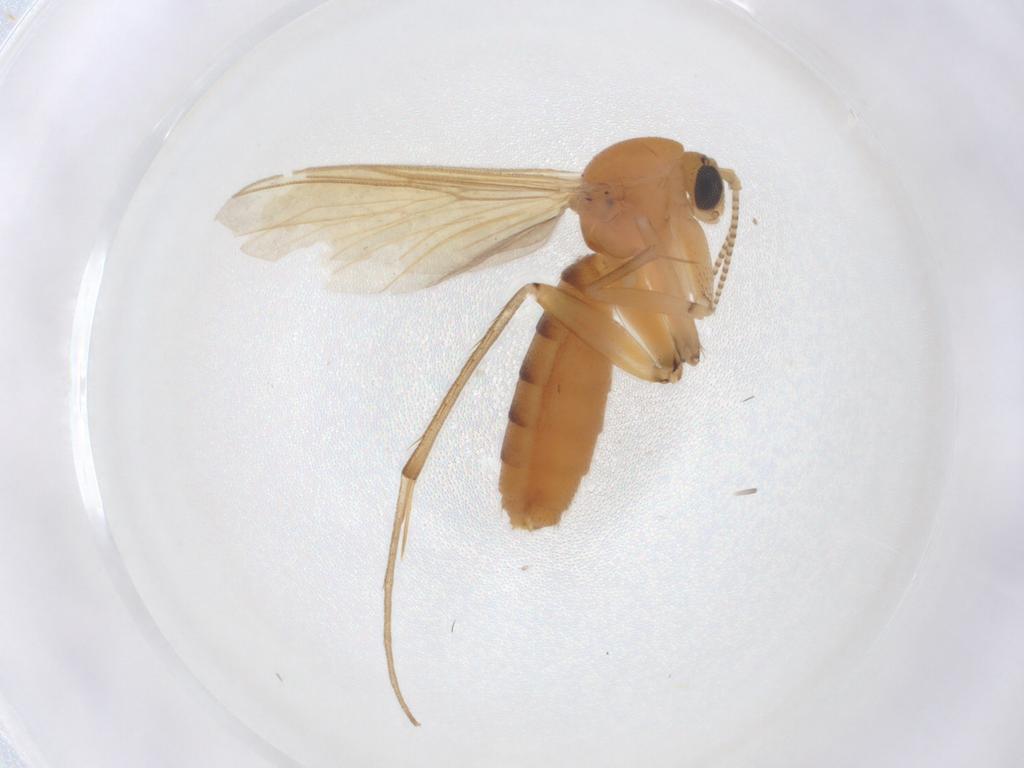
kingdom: Animalia
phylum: Arthropoda
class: Insecta
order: Diptera
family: Mycetophilidae
